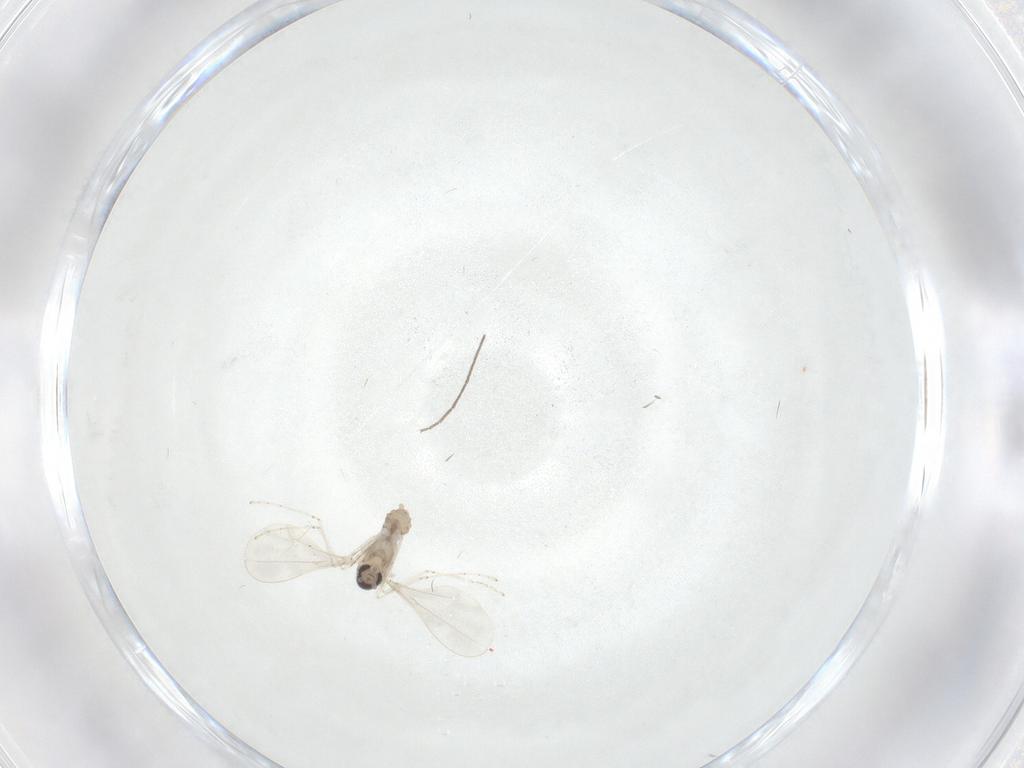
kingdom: Animalia
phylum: Arthropoda
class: Insecta
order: Diptera
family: Cecidomyiidae
